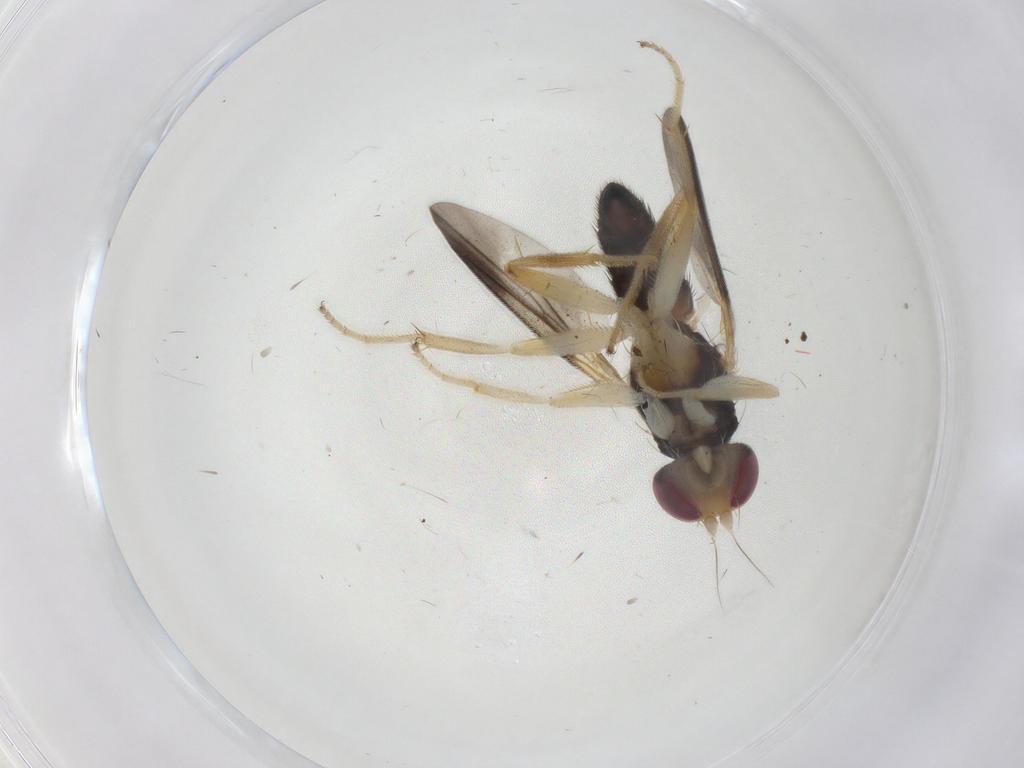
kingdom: Animalia
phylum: Arthropoda
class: Insecta
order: Diptera
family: Clusiidae
